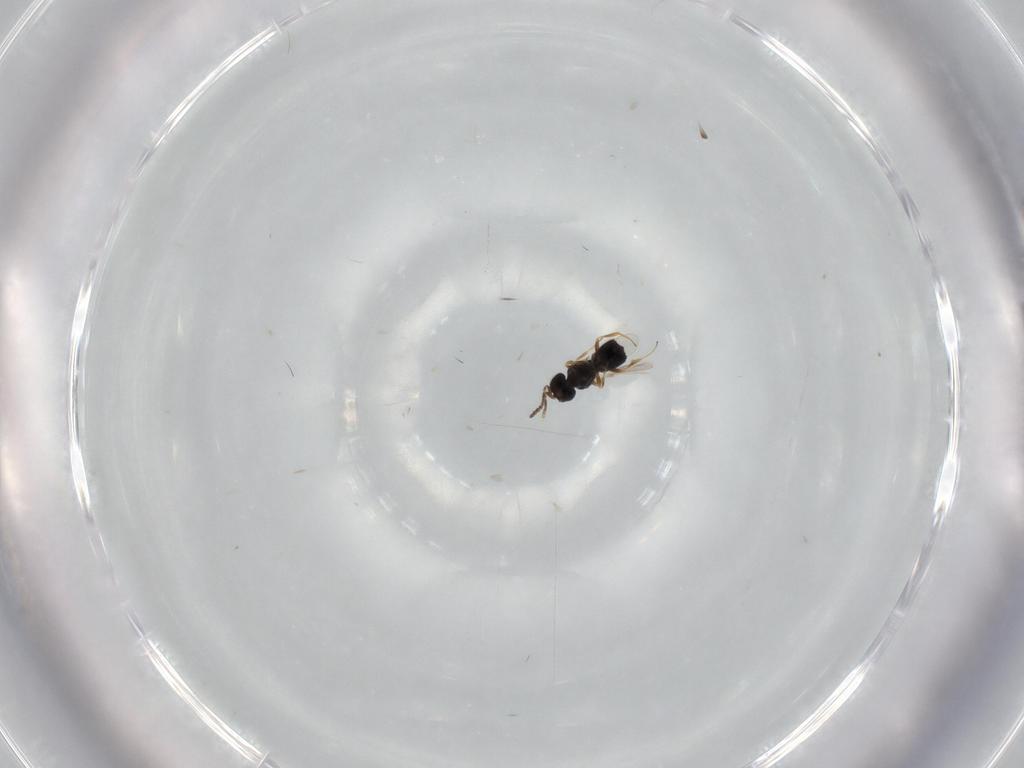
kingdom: Animalia
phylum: Arthropoda
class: Insecta
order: Hymenoptera
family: Scelionidae
